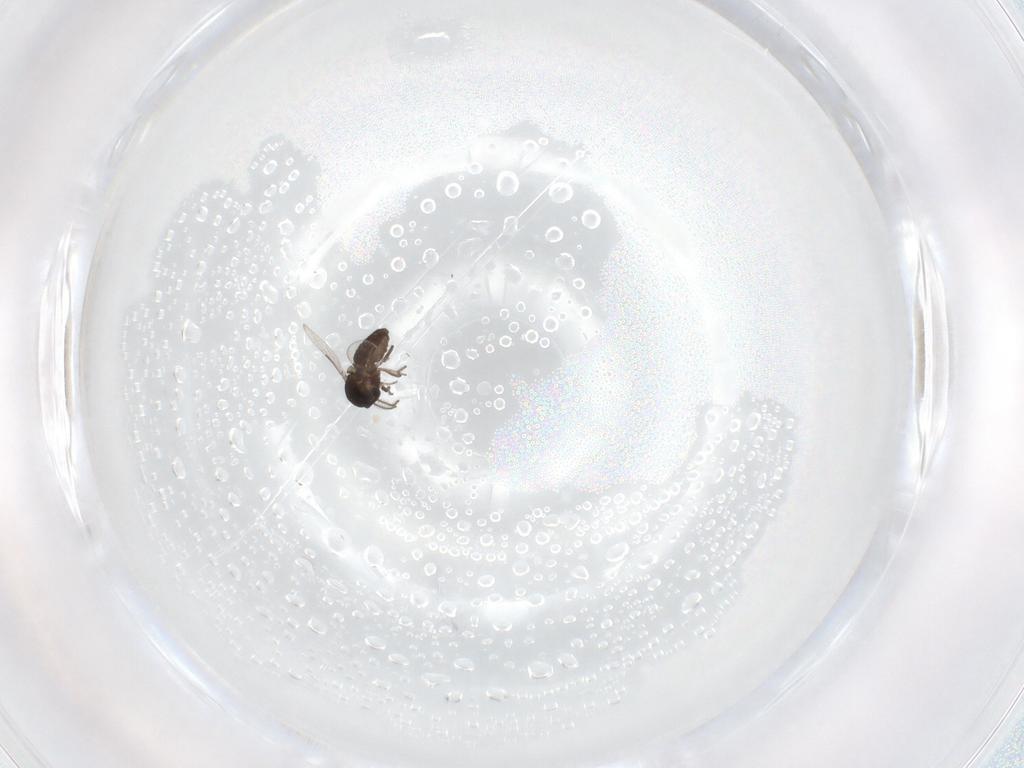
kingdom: Animalia
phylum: Arthropoda
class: Insecta
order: Diptera
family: Ceratopogonidae
